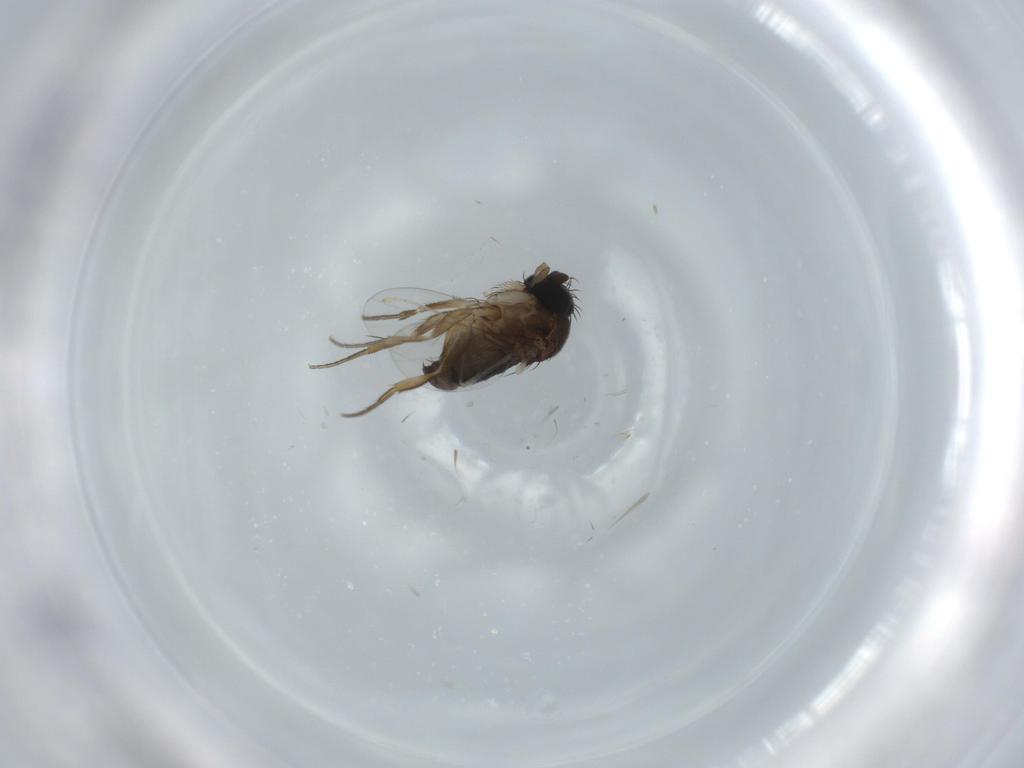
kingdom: Animalia
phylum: Arthropoda
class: Insecta
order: Diptera
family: Phoridae
